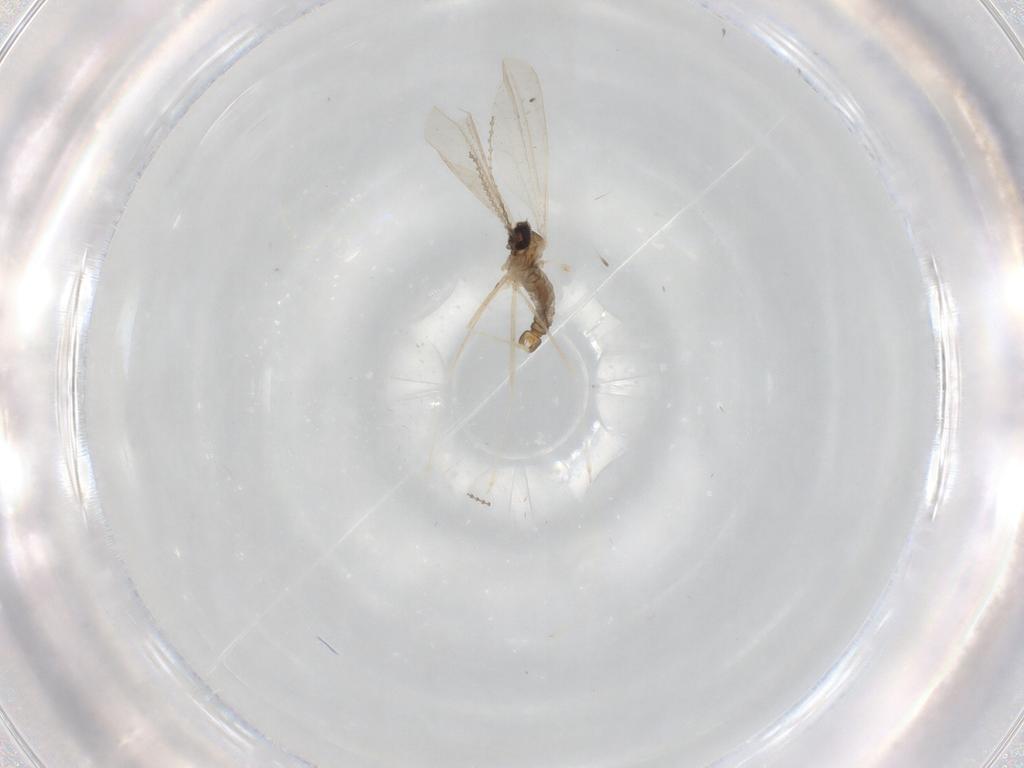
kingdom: Animalia
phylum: Arthropoda
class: Insecta
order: Diptera
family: Cecidomyiidae
